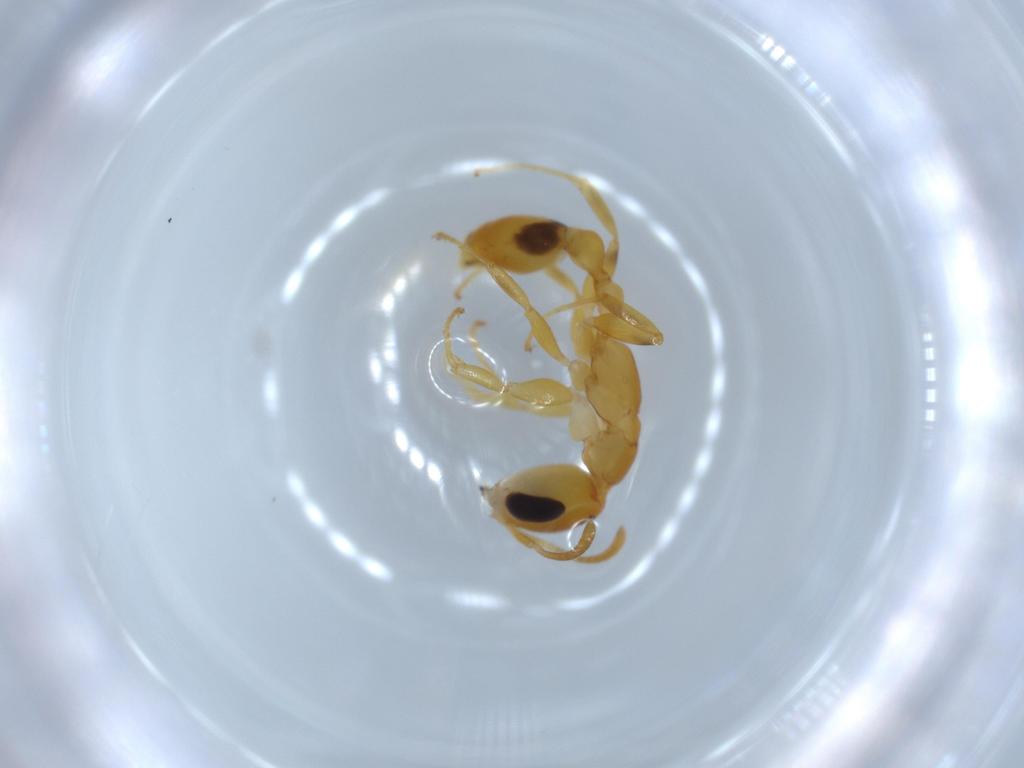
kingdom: Animalia
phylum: Arthropoda
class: Insecta
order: Hymenoptera
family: Formicidae
